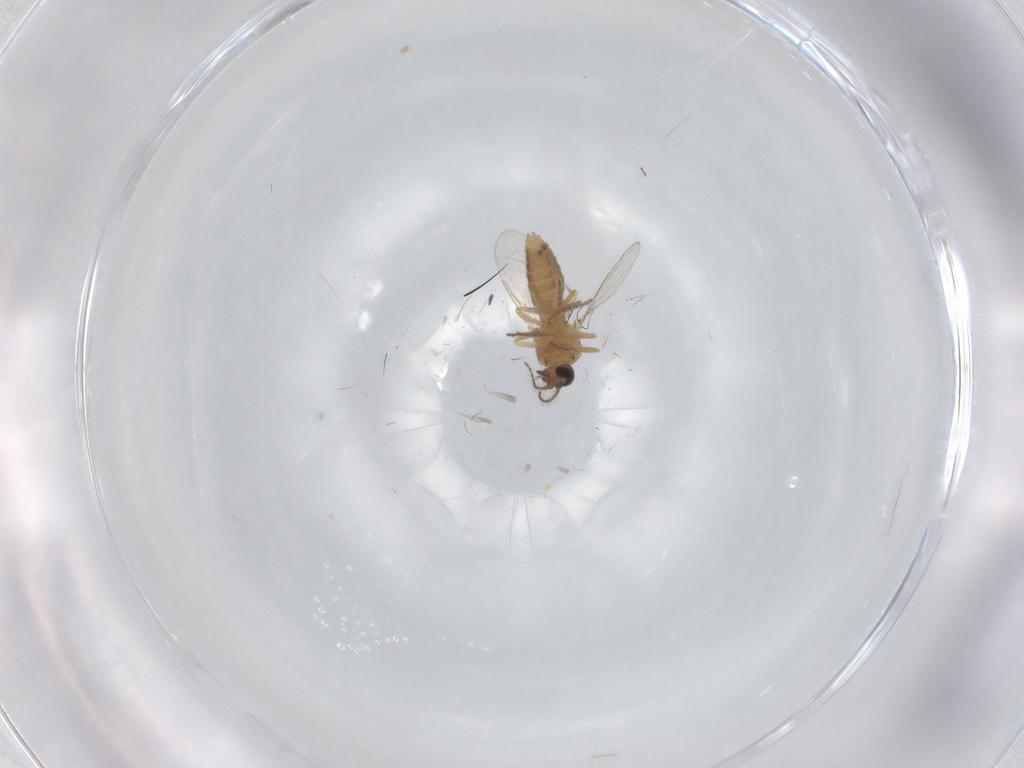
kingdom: Animalia
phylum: Arthropoda
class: Insecta
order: Diptera
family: Ceratopogonidae
